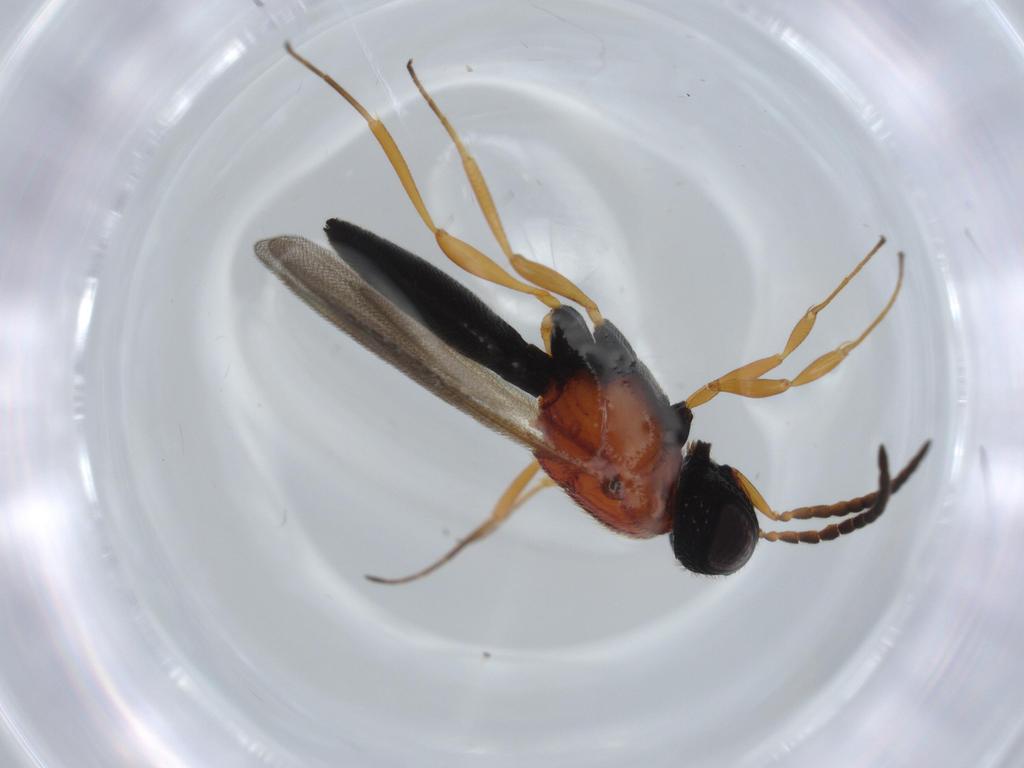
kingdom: Animalia
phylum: Arthropoda
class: Insecta
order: Hymenoptera
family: Scelionidae
